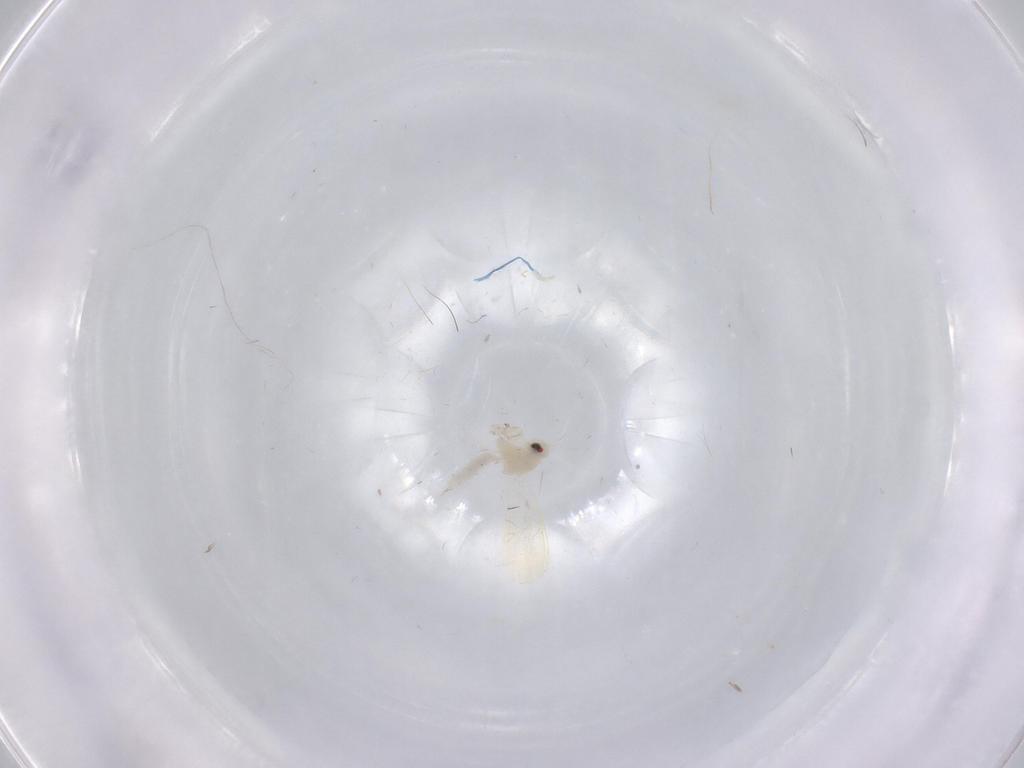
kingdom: Animalia
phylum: Arthropoda
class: Insecta
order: Hemiptera
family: Aleyrodidae
